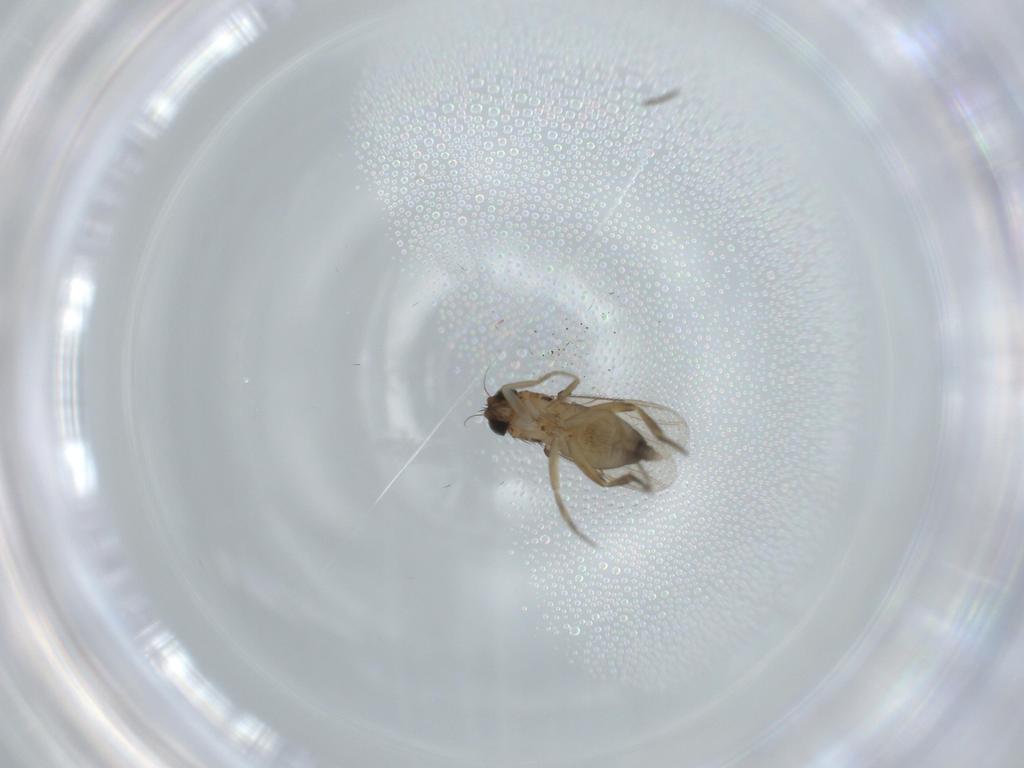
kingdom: Animalia
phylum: Arthropoda
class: Insecta
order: Diptera
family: Phoridae
